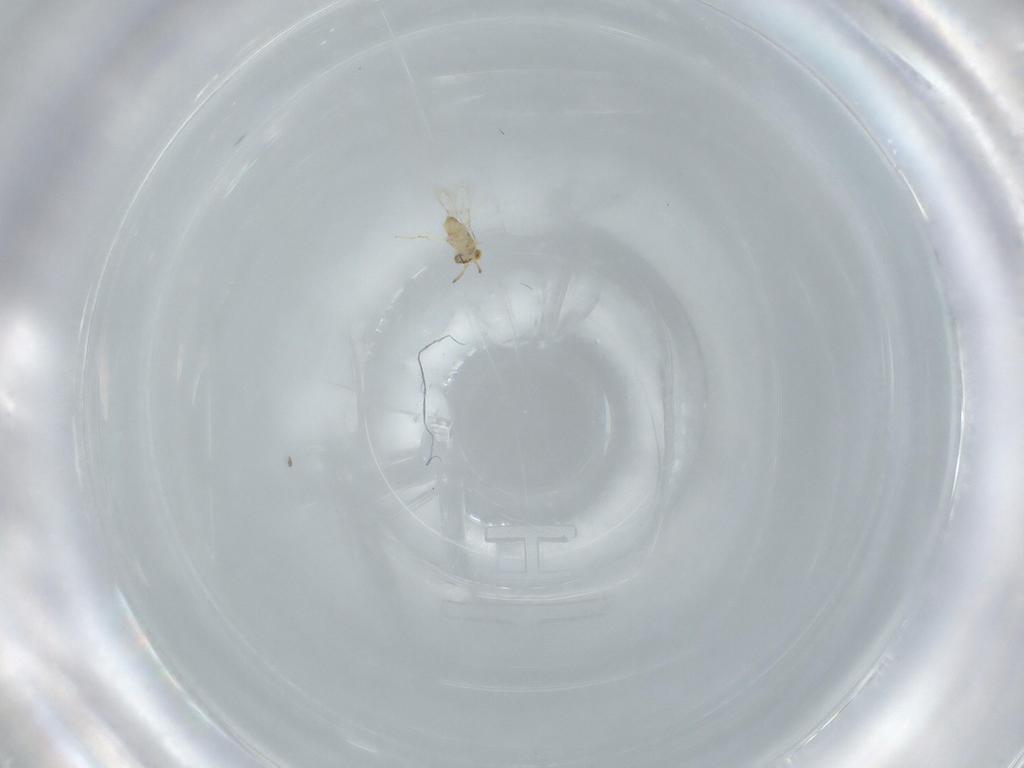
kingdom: Animalia
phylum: Arthropoda
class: Insecta
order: Hymenoptera
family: Aphelinidae
